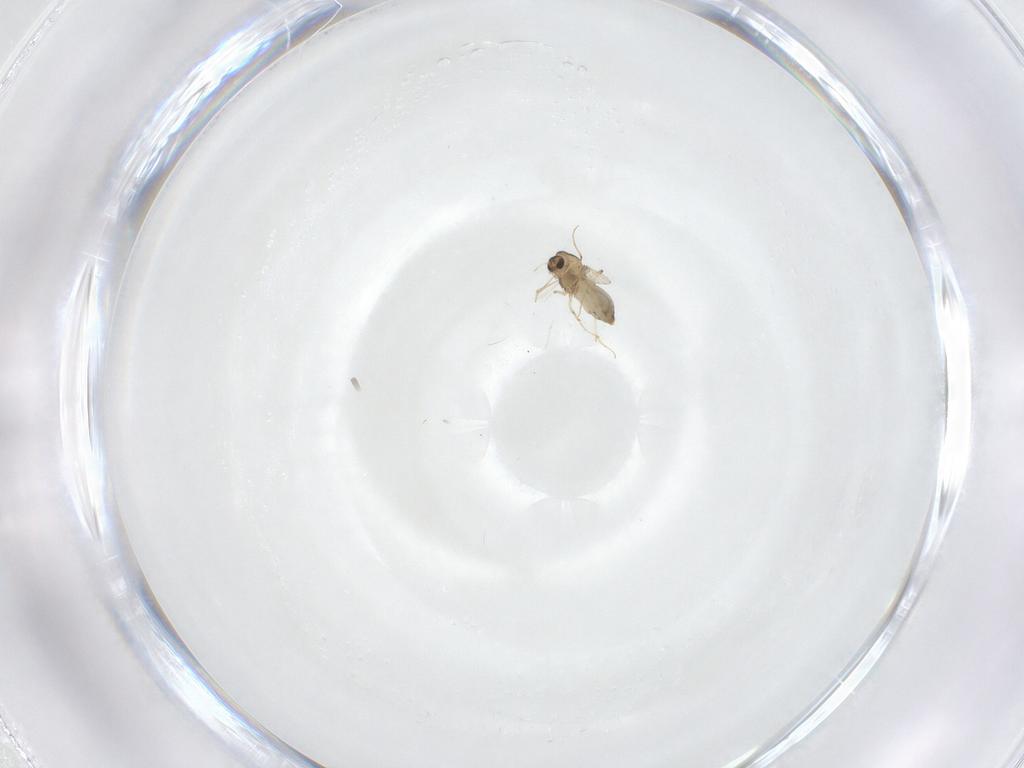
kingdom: Animalia
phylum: Arthropoda
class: Insecta
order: Diptera
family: Chironomidae
